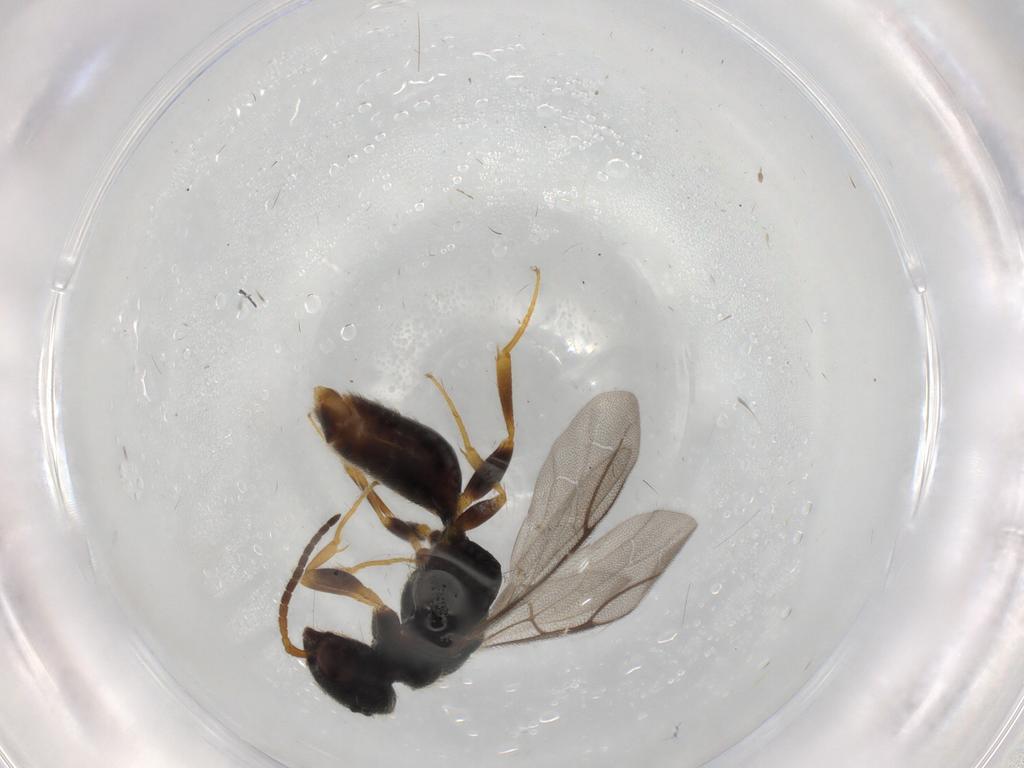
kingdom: Animalia
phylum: Arthropoda
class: Insecta
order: Hymenoptera
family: Bethylidae
